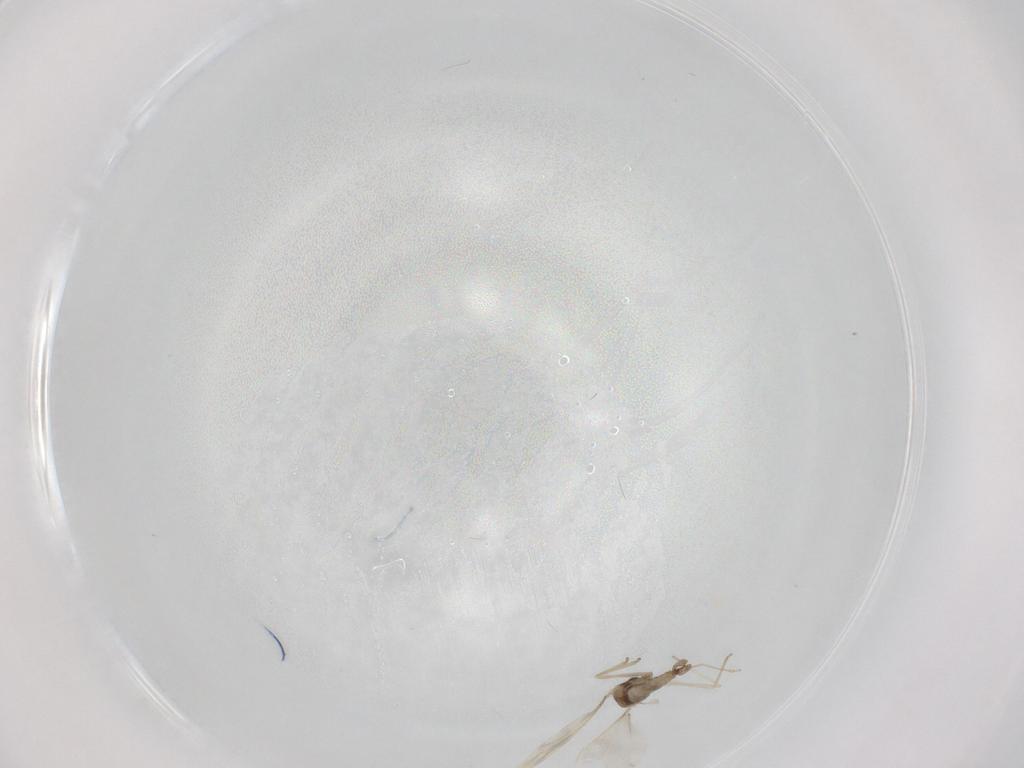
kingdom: Animalia
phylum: Arthropoda
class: Insecta
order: Diptera
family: Cecidomyiidae
